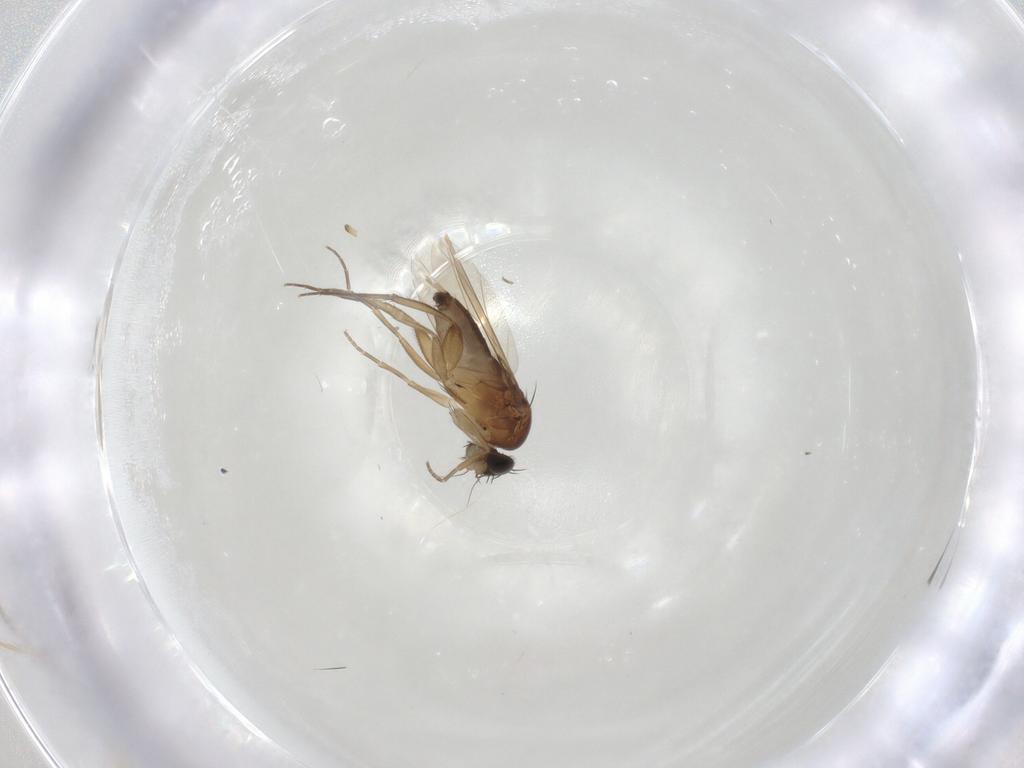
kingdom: Animalia
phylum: Arthropoda
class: Insecta
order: Diptera
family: Phoridae
